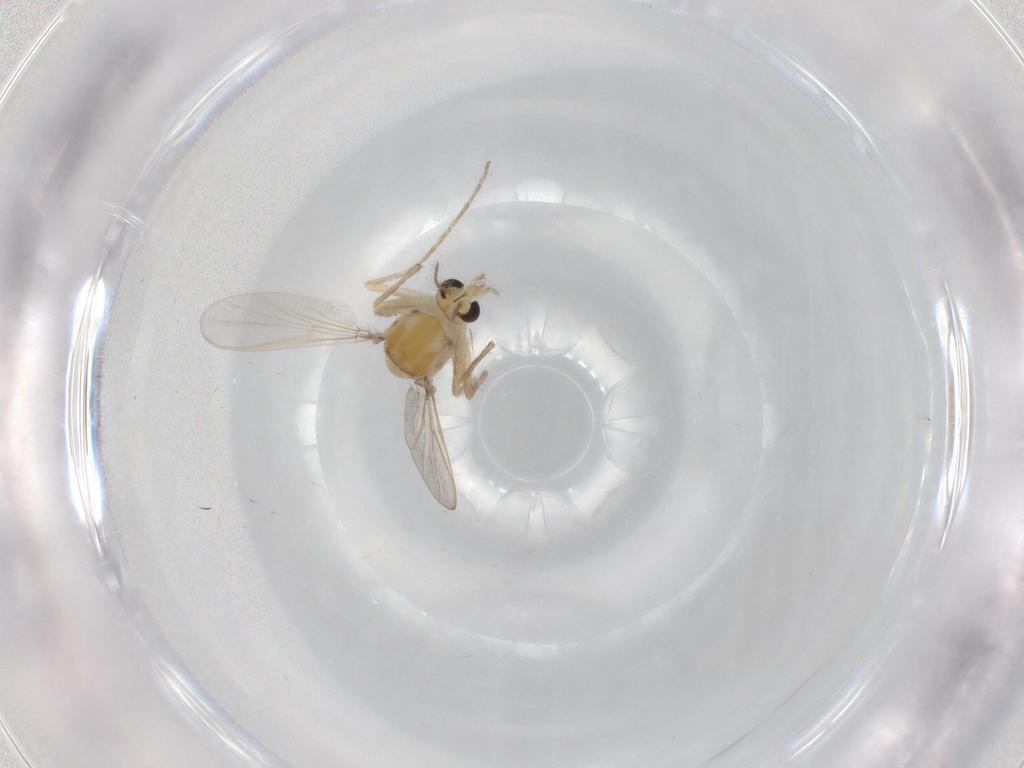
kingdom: Animalia
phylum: Arthropoda
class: Insecta
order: Diptera
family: Chironomidae
